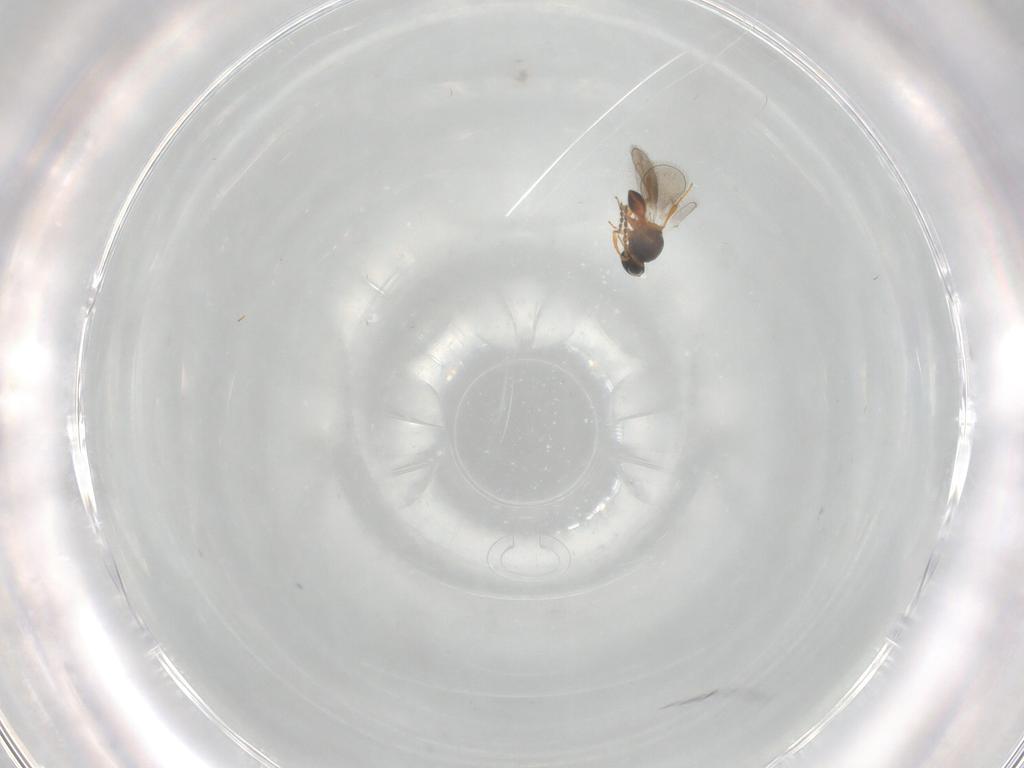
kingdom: Animalia
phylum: Arthropoda
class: Insecta
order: Hymenoptera
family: Platygastridae
